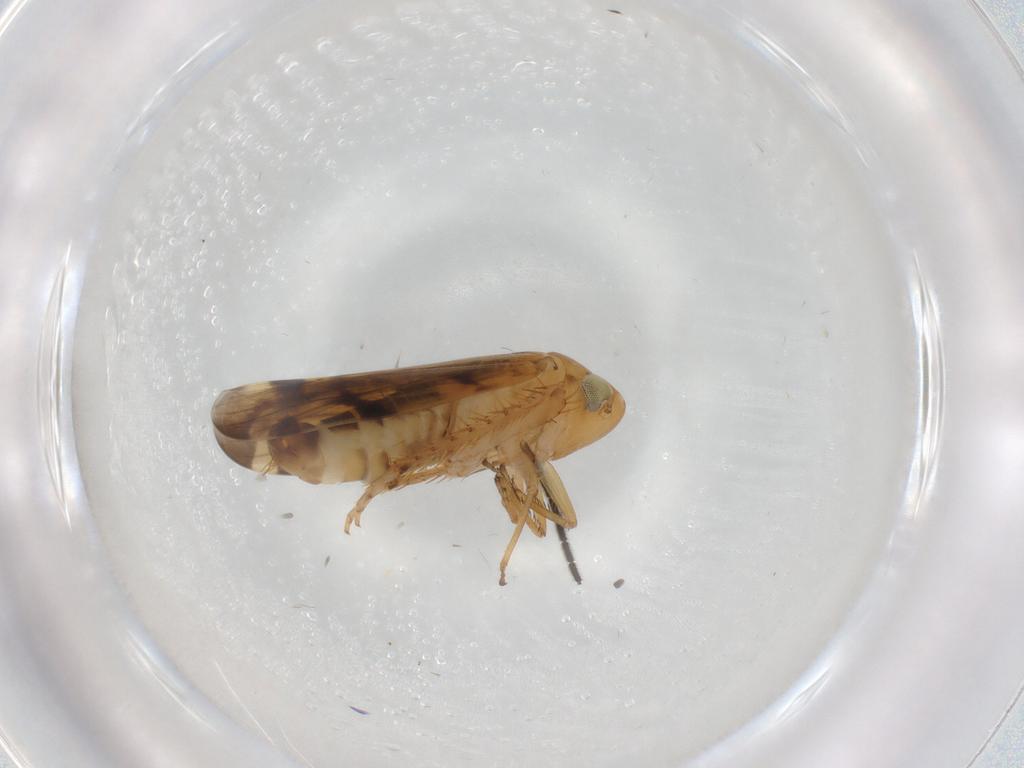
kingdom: Animalia
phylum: Arthropoda
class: Insecta
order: Hemiptera
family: Cicadellidae
